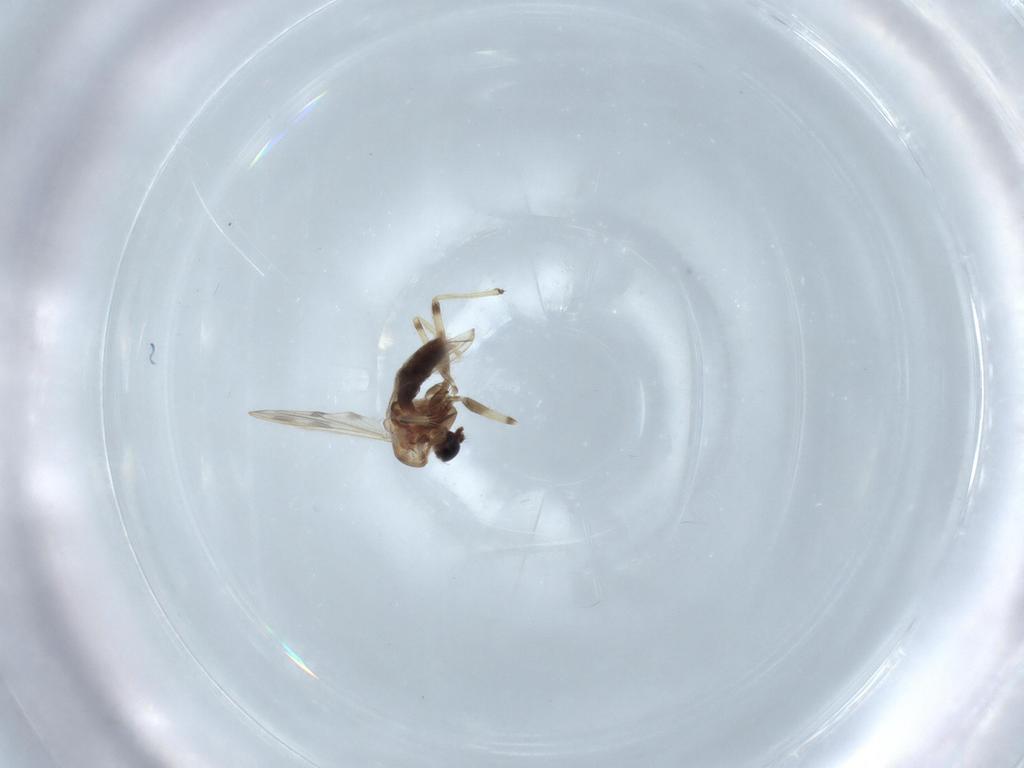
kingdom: Animalia
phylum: Arthropoda
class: Insecta
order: Diptera
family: Chironomidae
